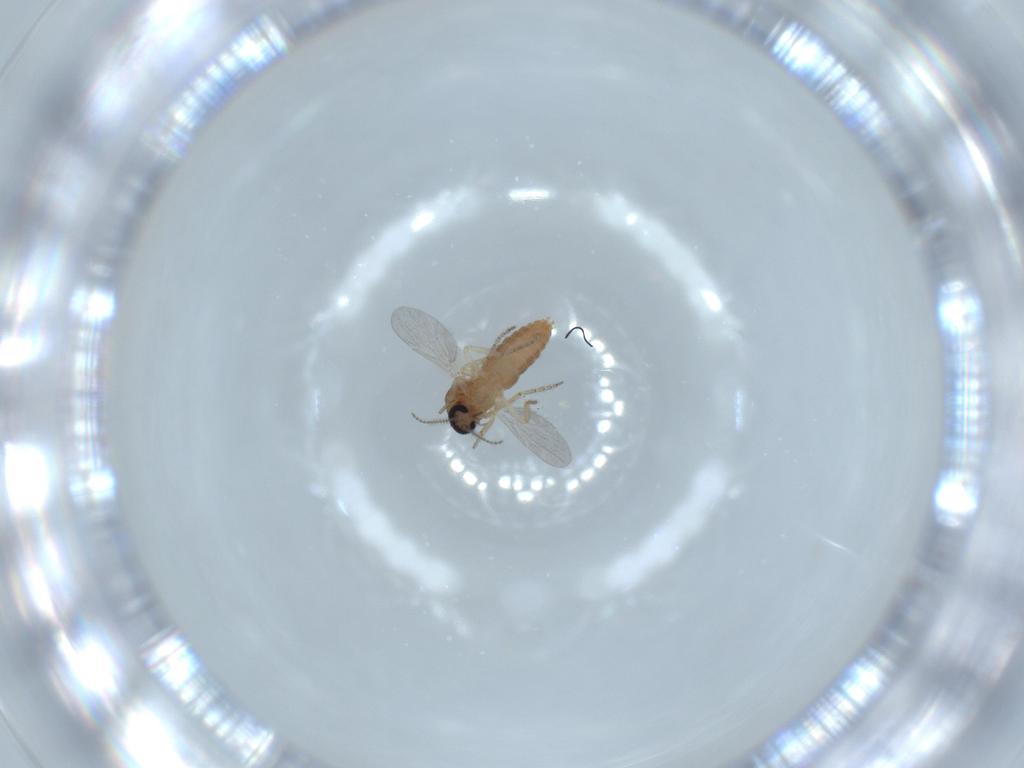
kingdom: Animalia
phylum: Arthropoda
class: Insecta
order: Diptera
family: Ceratopogonidae
